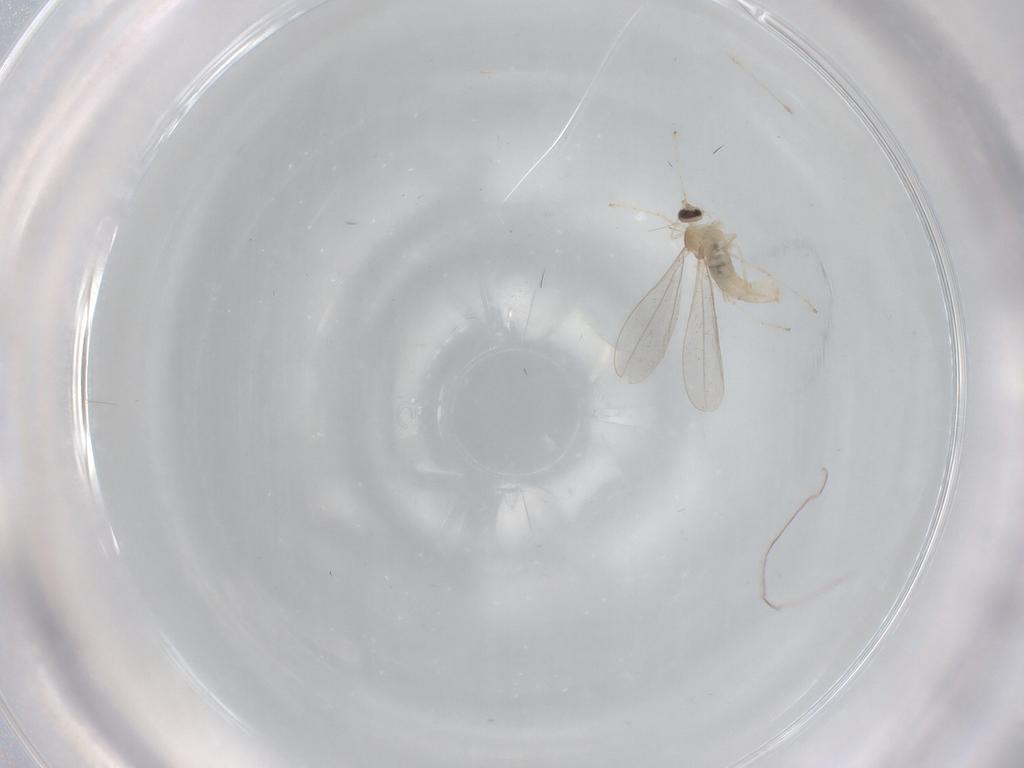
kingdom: Animalia
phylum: Arthropoda
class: Insecta
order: Diptera
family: Cecidomyiidae
